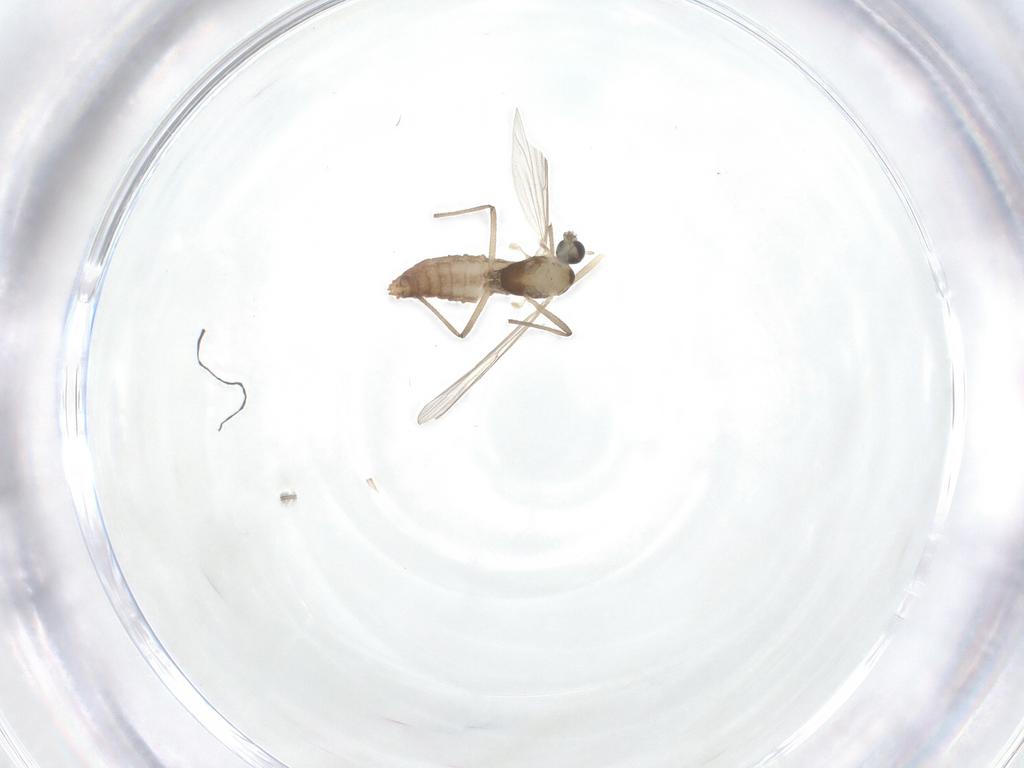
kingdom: Animalia
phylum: Arthropoda
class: Insecta
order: Diptera
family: Chironomidae
